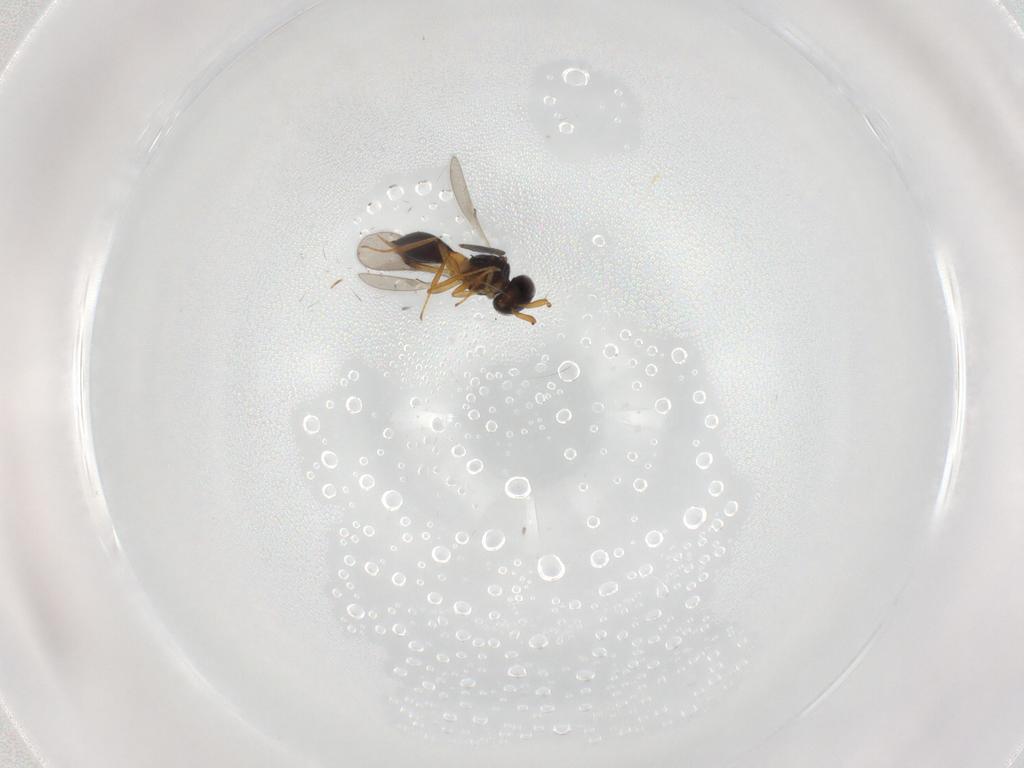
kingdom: Animalia
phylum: Arthropoda
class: Insecta
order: Hymenoptera
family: Scelionidae
